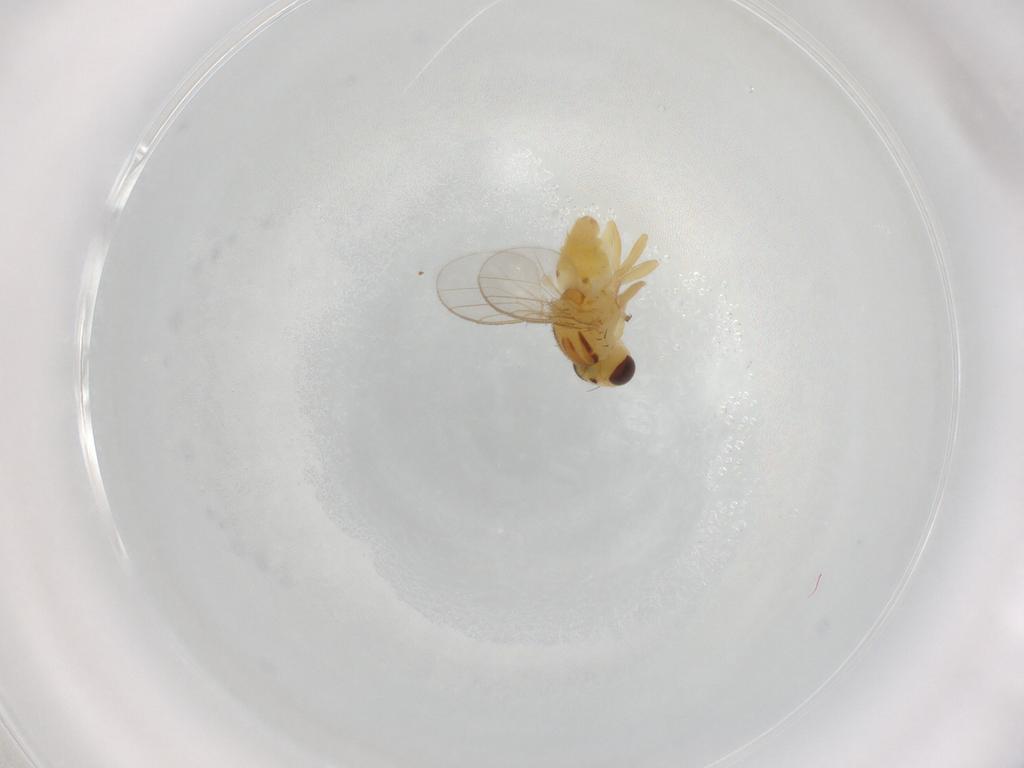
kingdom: Animalia
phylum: Arthropoda
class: Insecta
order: Diptera
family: Chloropidae
